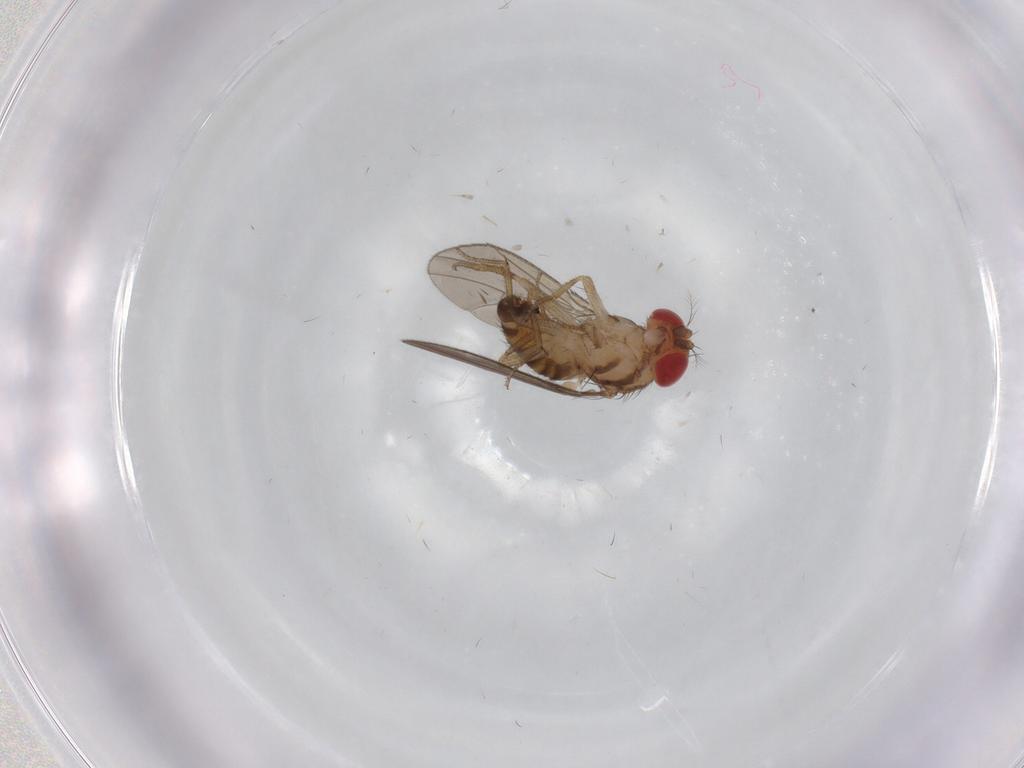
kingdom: Animalia
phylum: Arthropoda
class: Insecta
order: Diptera
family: Drosophilidae
